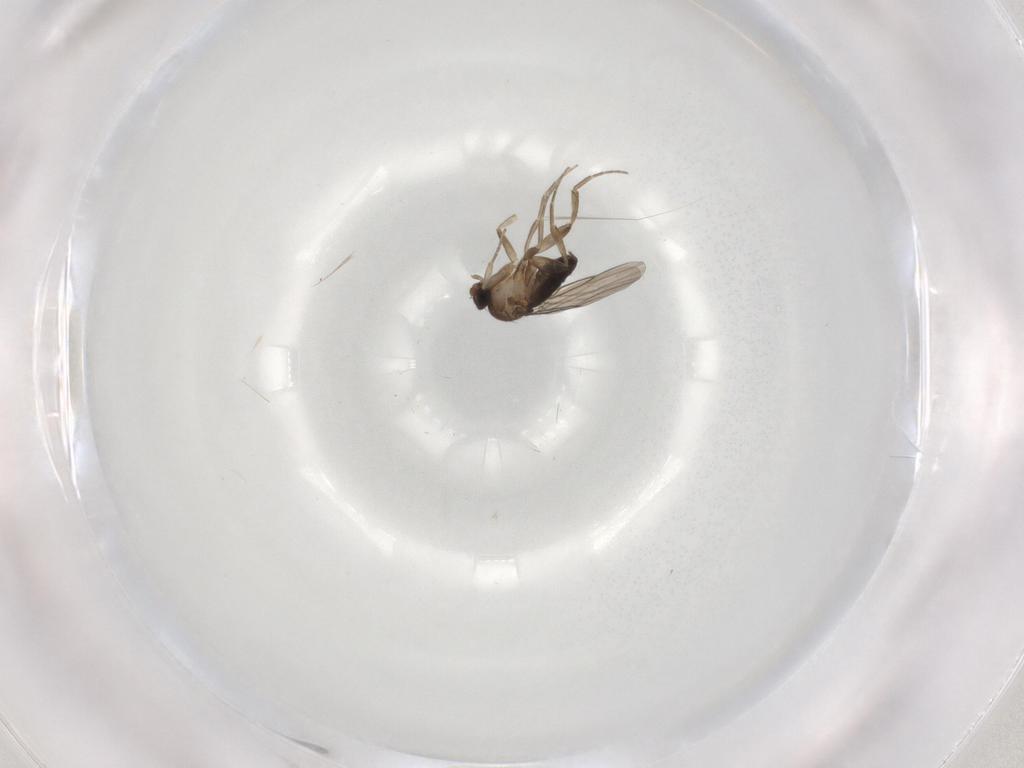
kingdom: Animalia
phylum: Arthropoda
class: Insecta
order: Diptera
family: Phoridae
